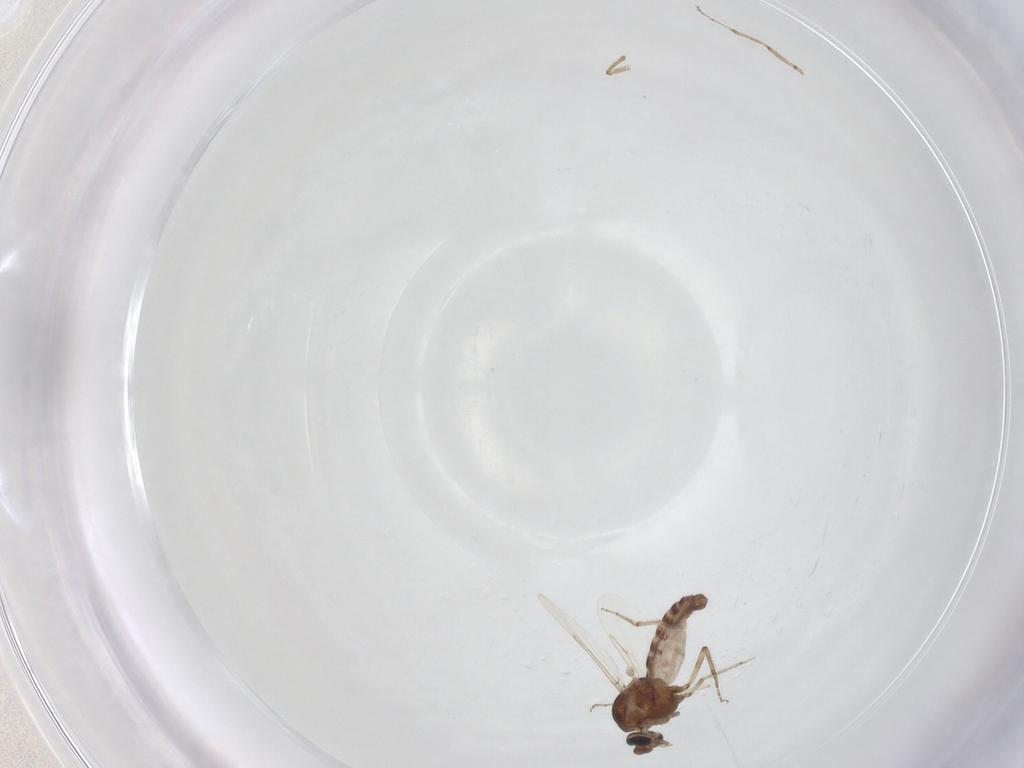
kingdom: Animalia
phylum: Arthropoda
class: Insecta
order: Diptera
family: Ceratopogonidae
